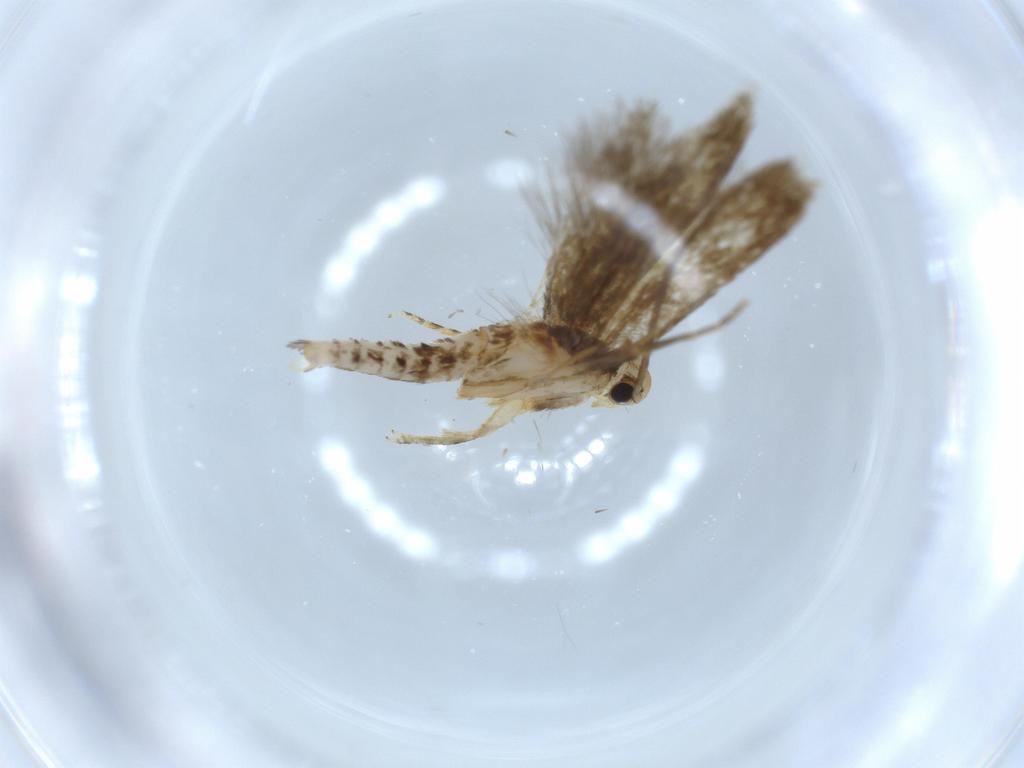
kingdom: Animalia
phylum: Arthropoda
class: Insecta
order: Lepidoptera
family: Tineidae
